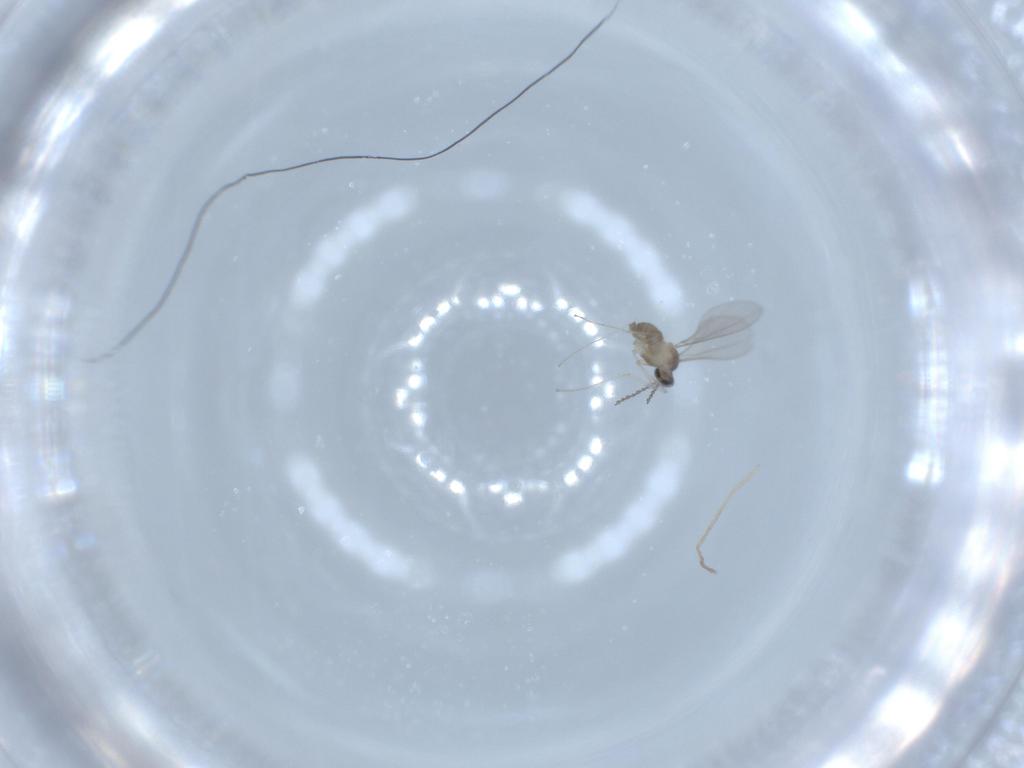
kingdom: Animalia
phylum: Arthropoda
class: Insecta
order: Diptera
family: Cecidomyiidae
